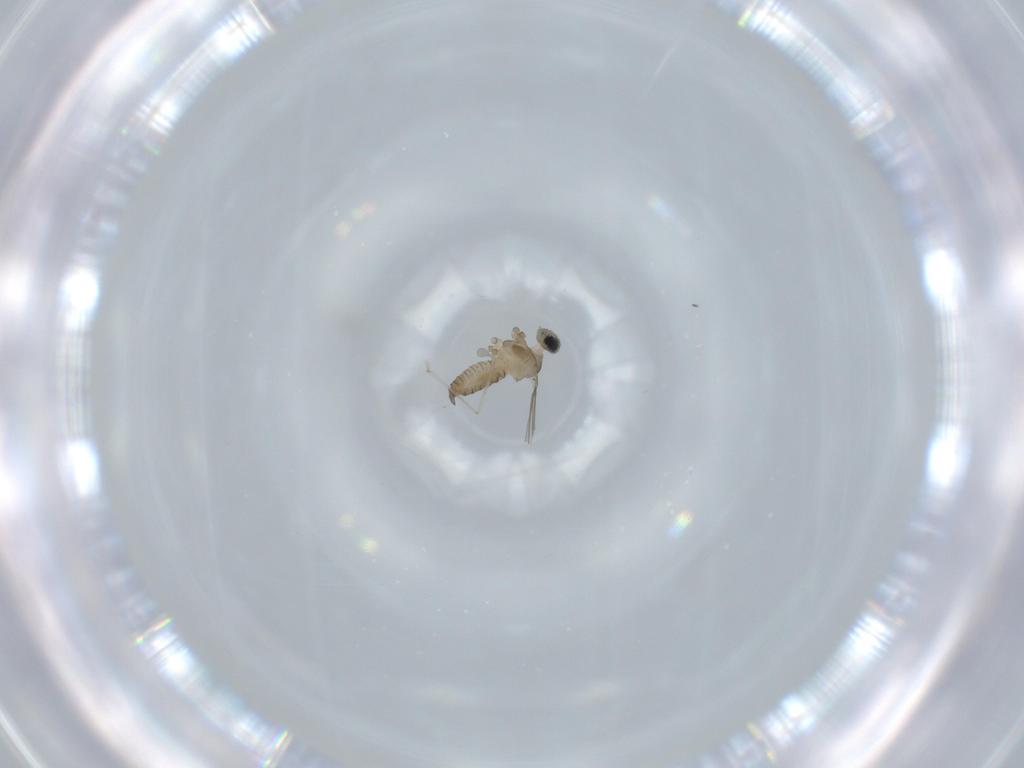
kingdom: Animalia
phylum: Arthropoda
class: Insecta
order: Diptera
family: Cecidomyiidae
